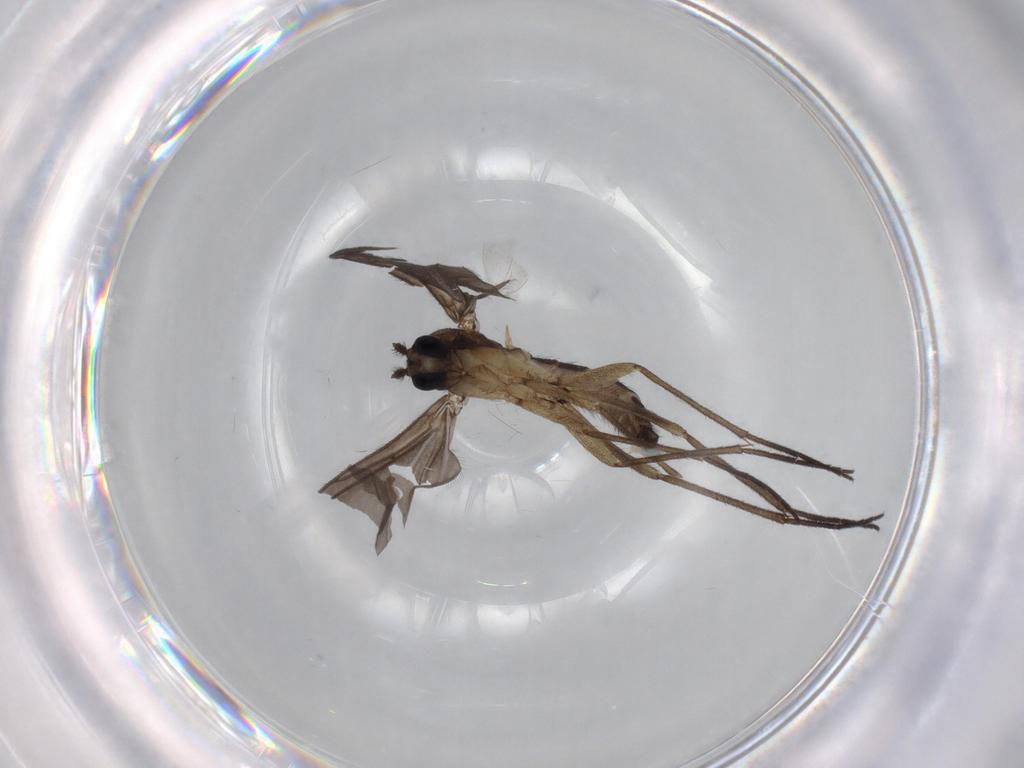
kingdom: Animalia
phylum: Arthropoda
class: Insecta
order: Diptera
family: Sciaridae
